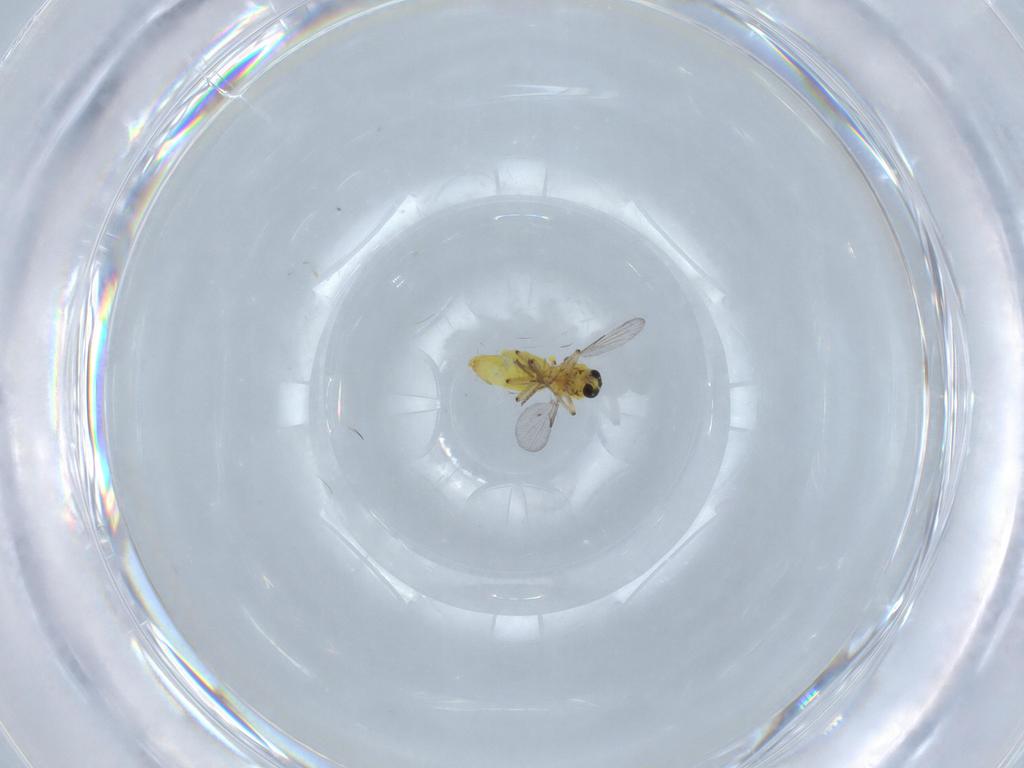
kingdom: Animalia
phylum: Arthropoda
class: Insecta
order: Diptera
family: Ceratopogonidae
